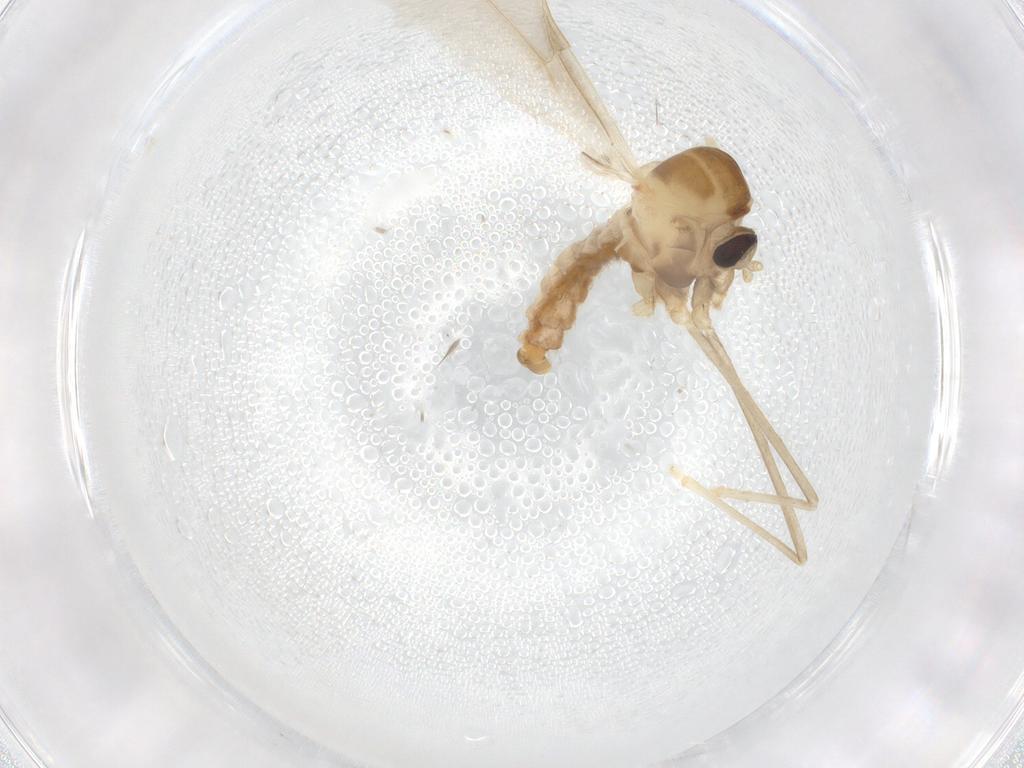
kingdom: Animalia
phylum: Arthropoda
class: Insecta
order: Diptera
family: Cecidomyiidae
